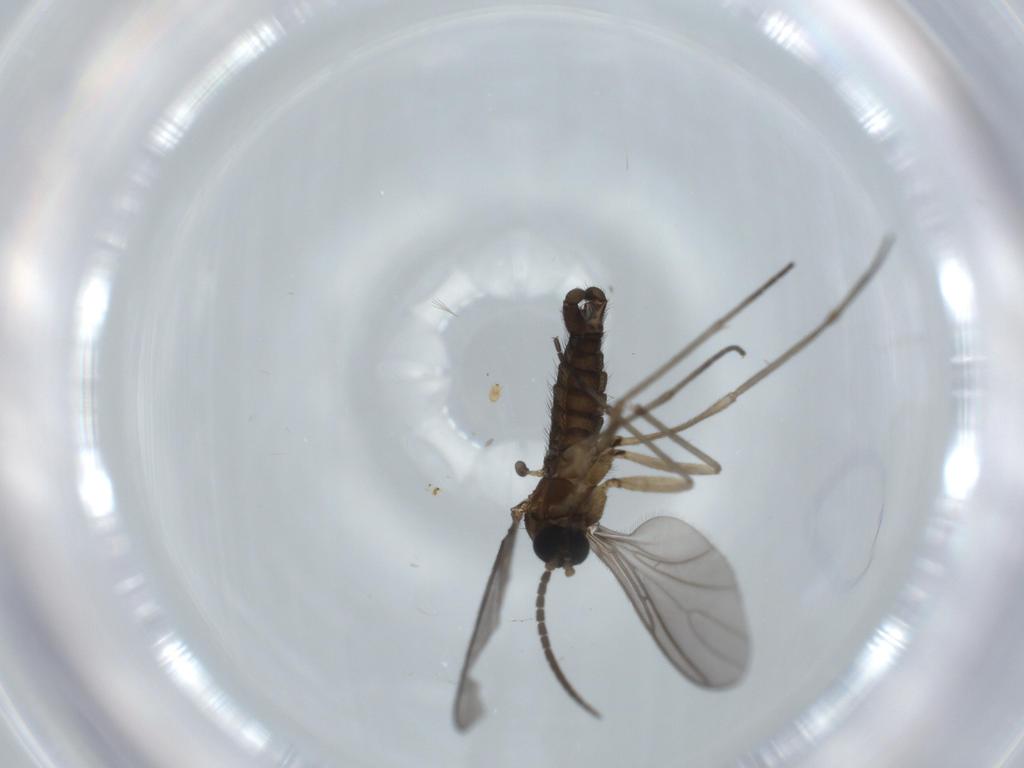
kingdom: Animalia
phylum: Arthropoda
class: Insecta
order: Diptera
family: Sciaridae
